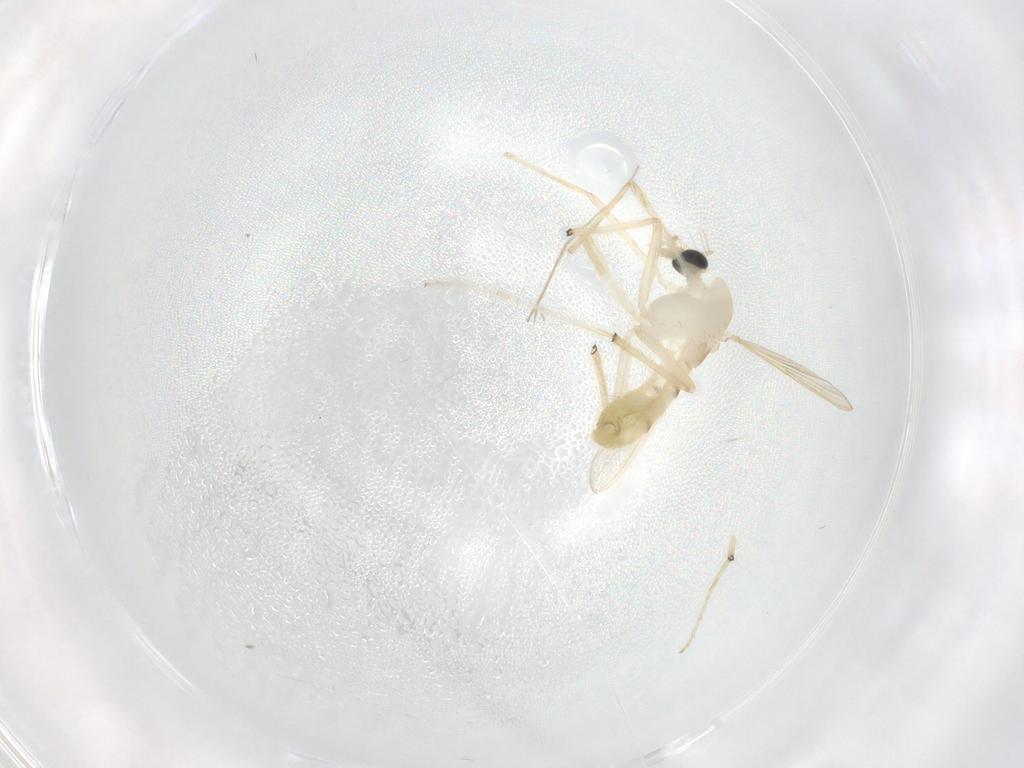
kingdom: Animalia
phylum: Arthropoda
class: Insecta
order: Diptera
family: Chironomidae
